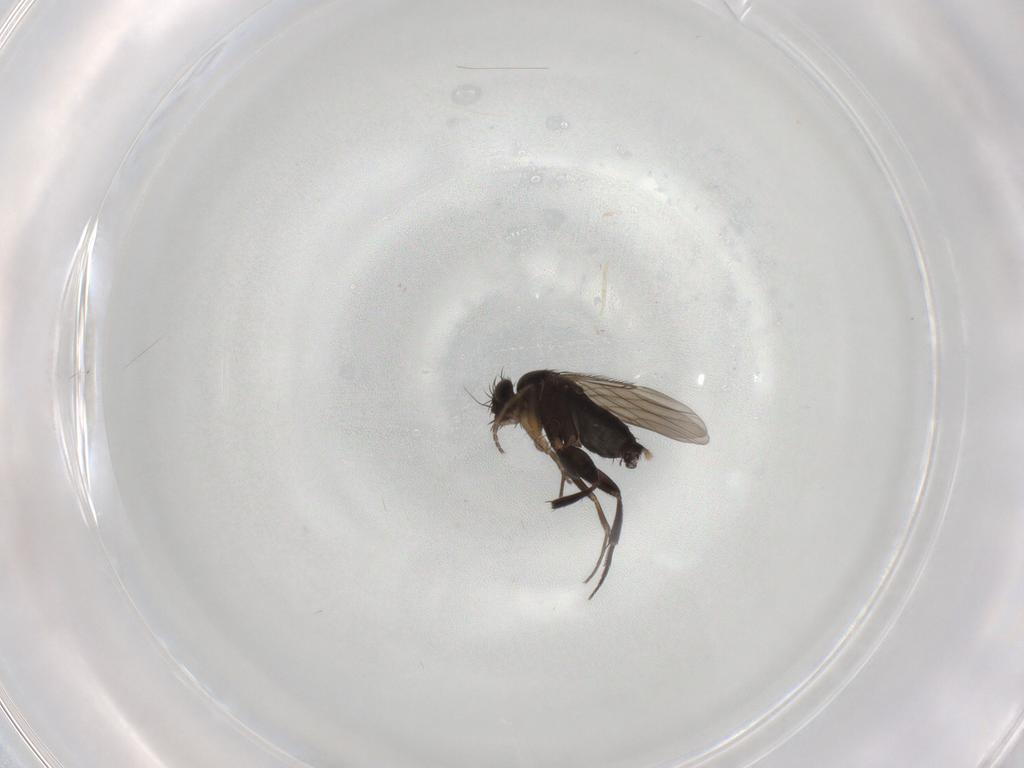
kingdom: Animalia
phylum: Arthropoda
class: Insecta
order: Diptera
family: Phoridae
